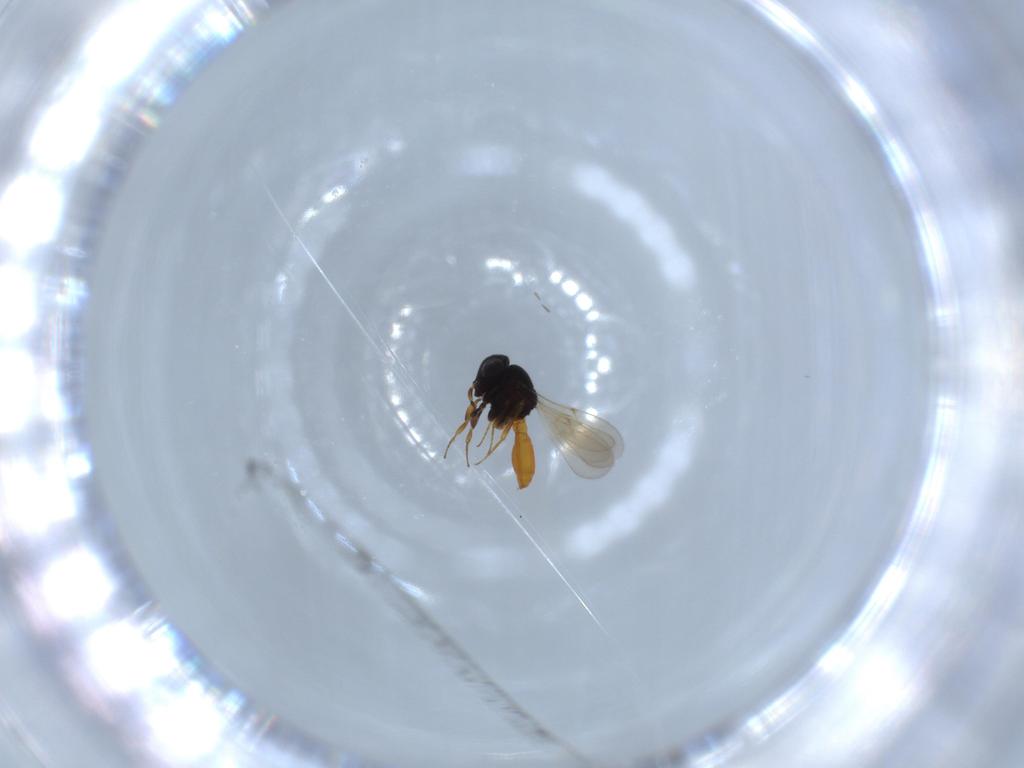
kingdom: Animalia
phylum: Arthropoda
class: Insecta
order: Hymenoptera
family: Scelionidae
